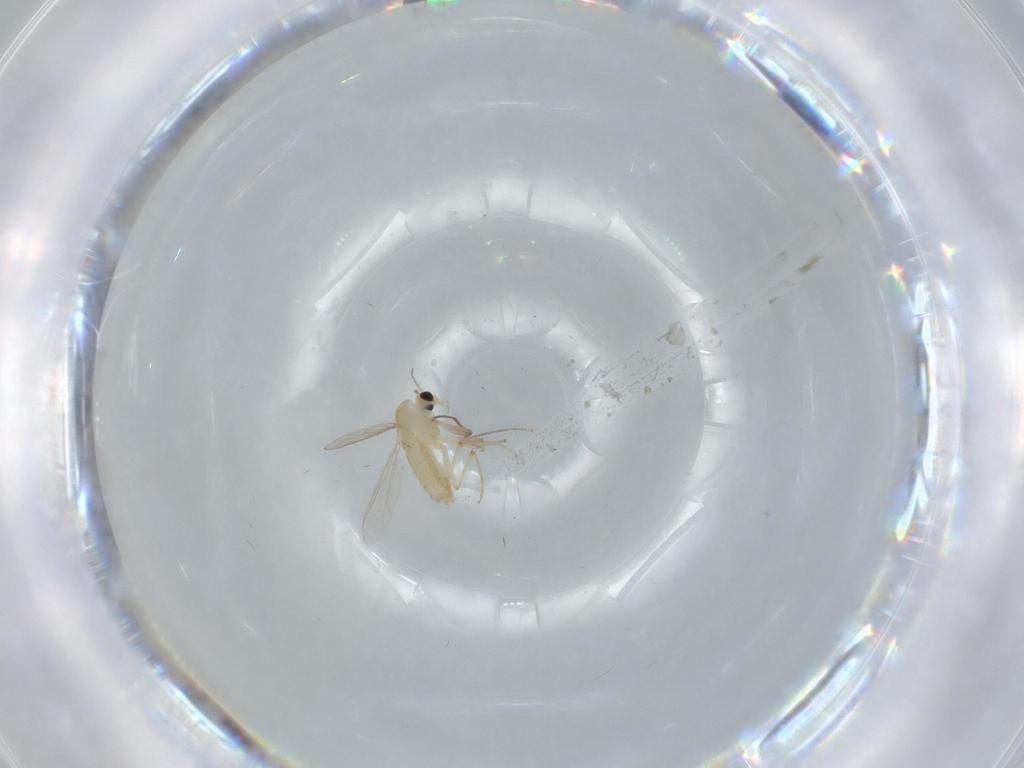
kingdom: Animalia
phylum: Arthropoda
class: Insecta
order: Diptera
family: Chironomidae
